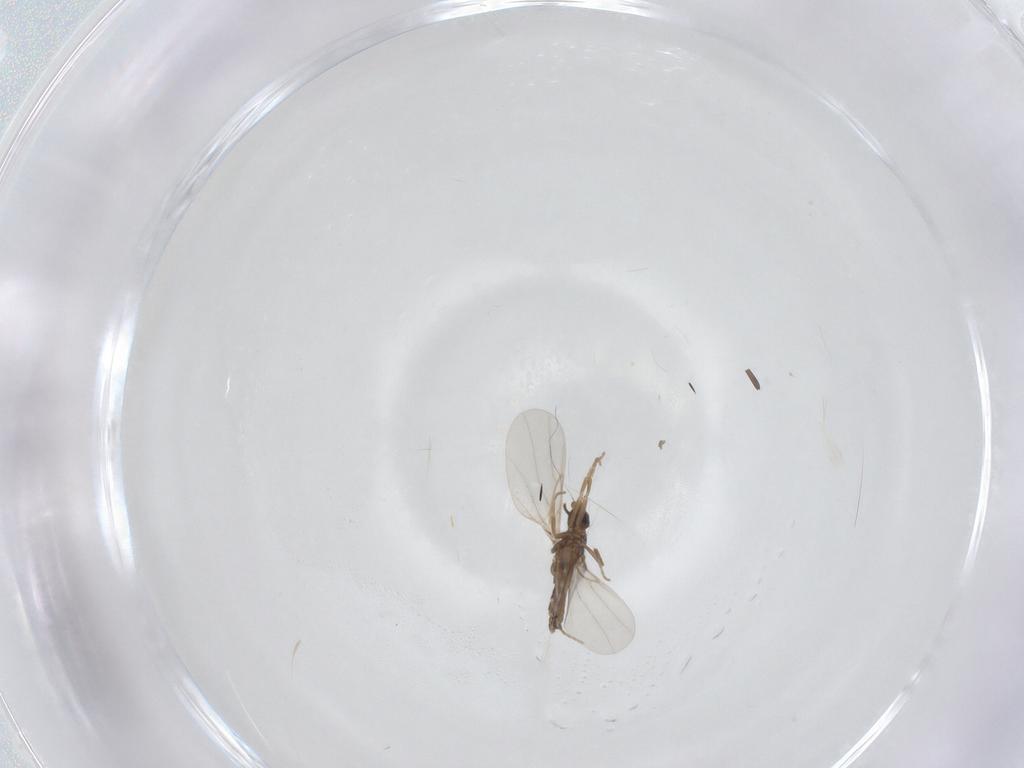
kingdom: Animalia
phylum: Arthropoda
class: Insecta
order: Diptera
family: Cecidomyiidae
